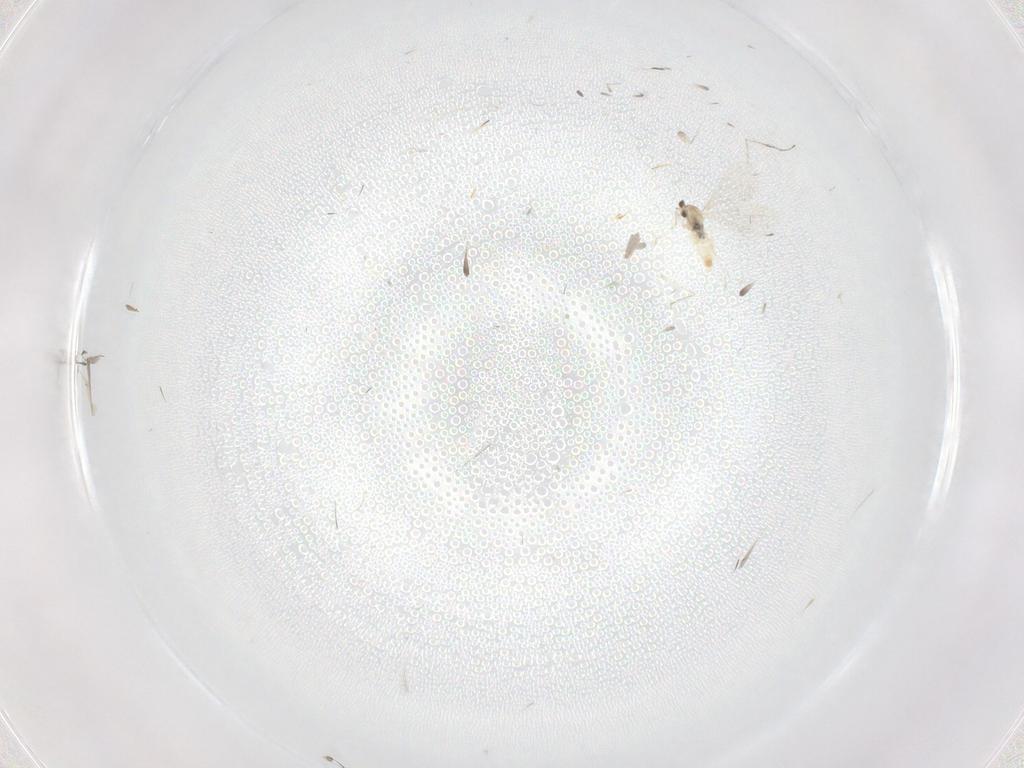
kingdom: Animalia
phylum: Arthropoda
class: Insecta
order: Diptera
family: Cecidomyiidae
